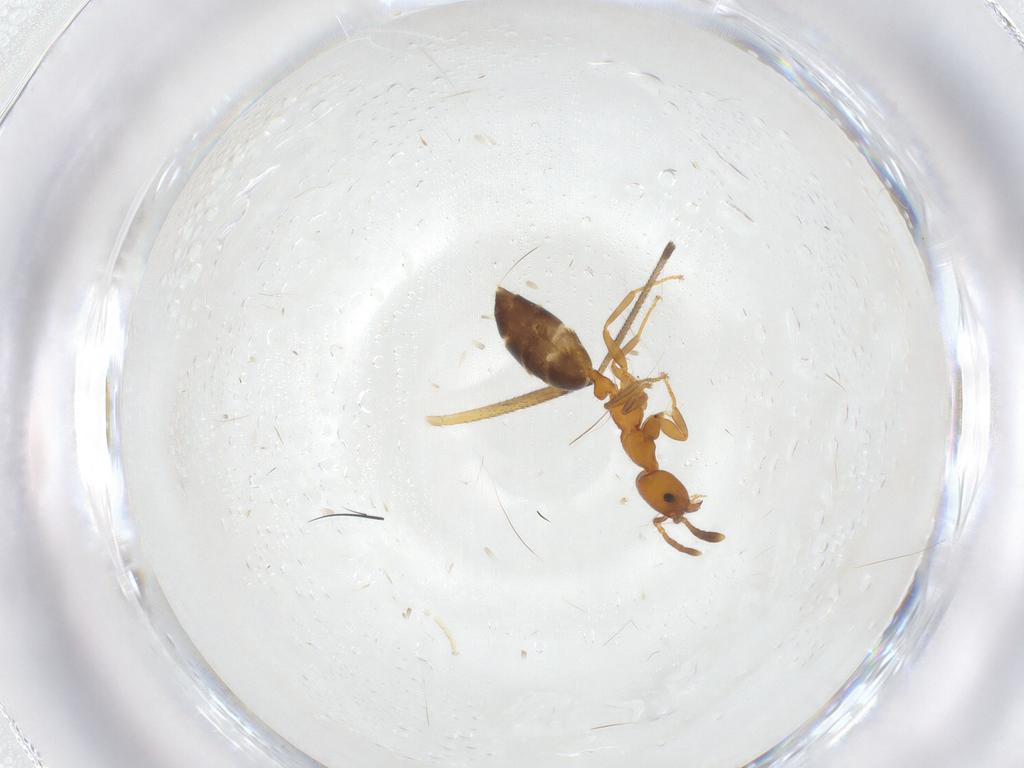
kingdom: Animalia
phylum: Arthropoda
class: Insecta
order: Hymenoptera
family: Formicidae
